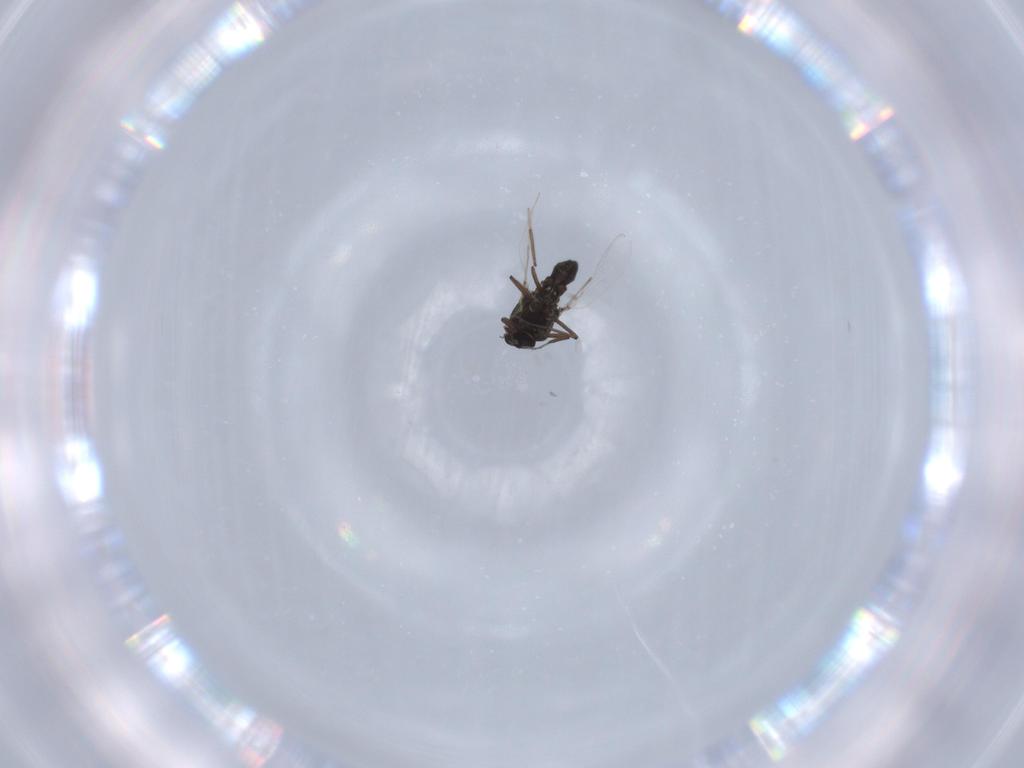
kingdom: Animalia
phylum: Arthropoda
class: Insecta
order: Diptera
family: Ceratopogonidae
